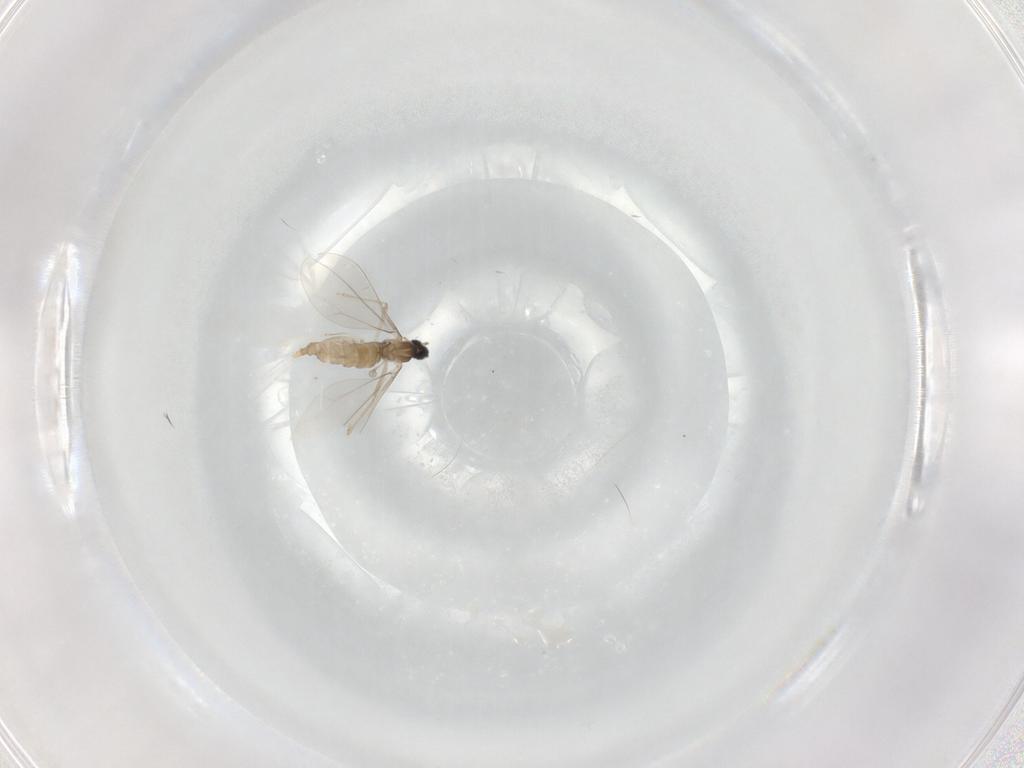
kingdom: Animalia
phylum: Arthropoda
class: Insecta
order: Diptera
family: Cecidomyiidae
